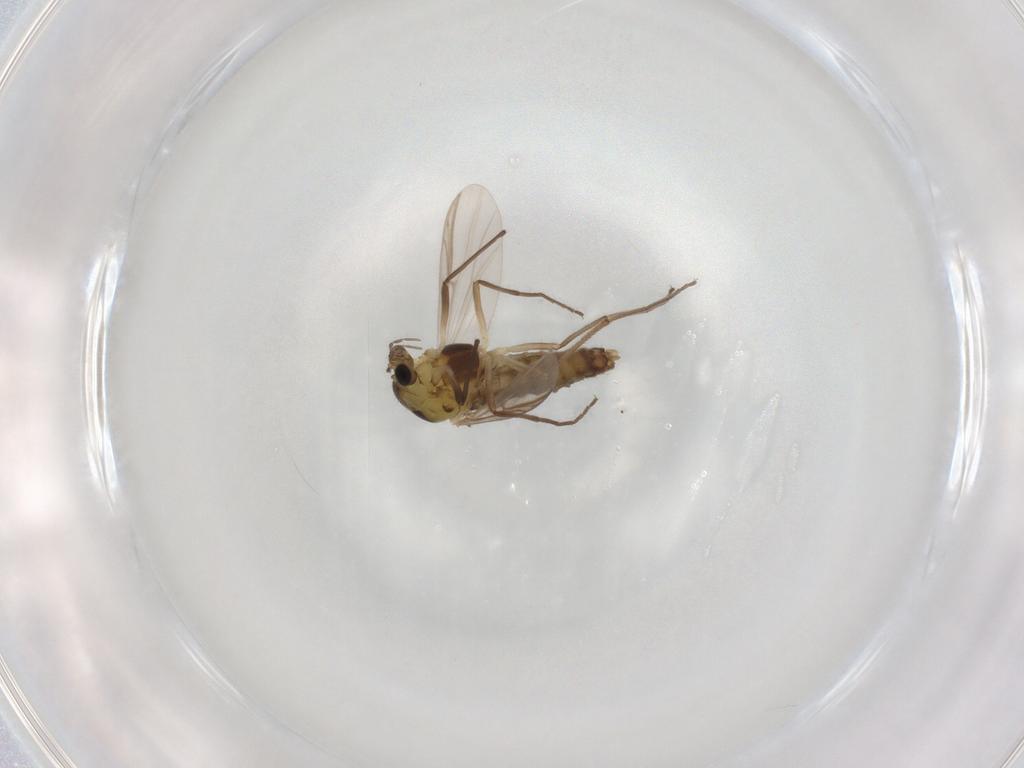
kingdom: Animalia
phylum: Arthropoda
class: Insecta
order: Diptera
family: Chironomidae
